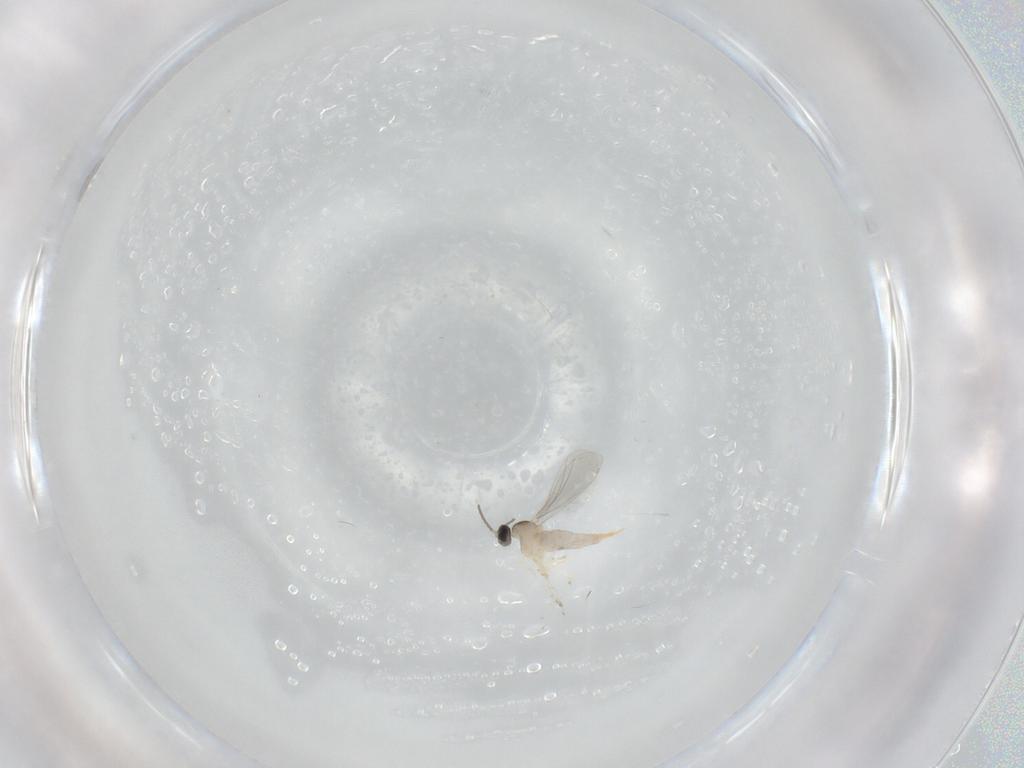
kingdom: Animalia
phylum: Arthropoda
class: Insecta
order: Diptera
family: Cecidomyiidae
